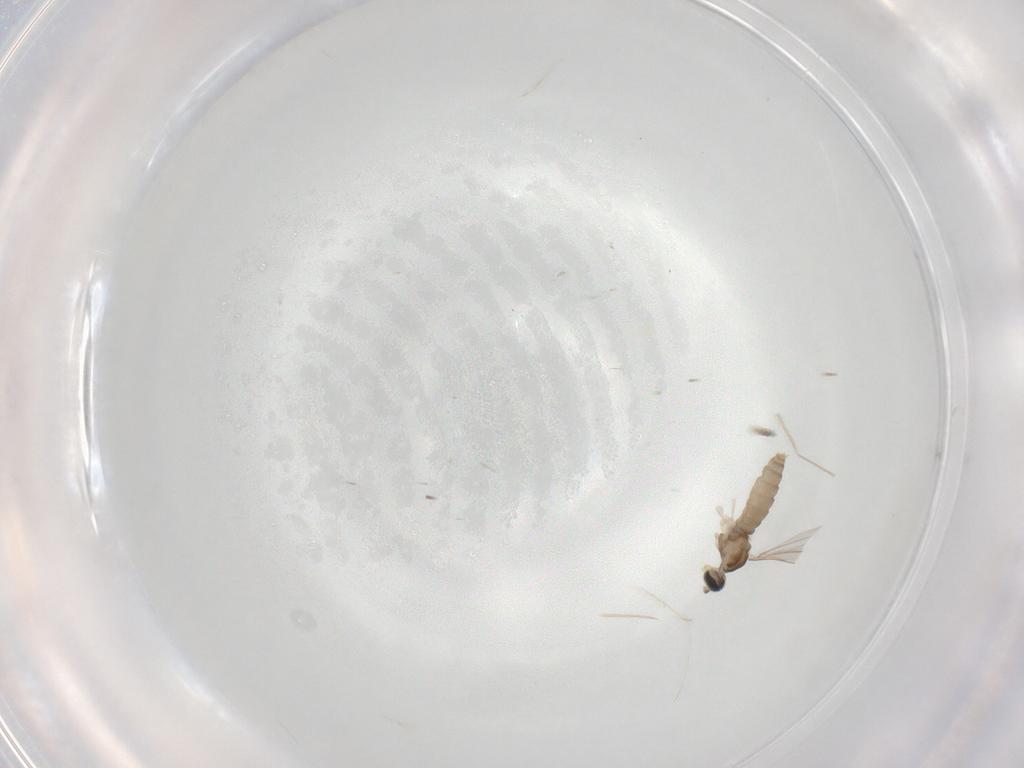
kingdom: Animalia
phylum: Arthropoda
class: Insecta
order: Diptera
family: Cecidomyiidae
